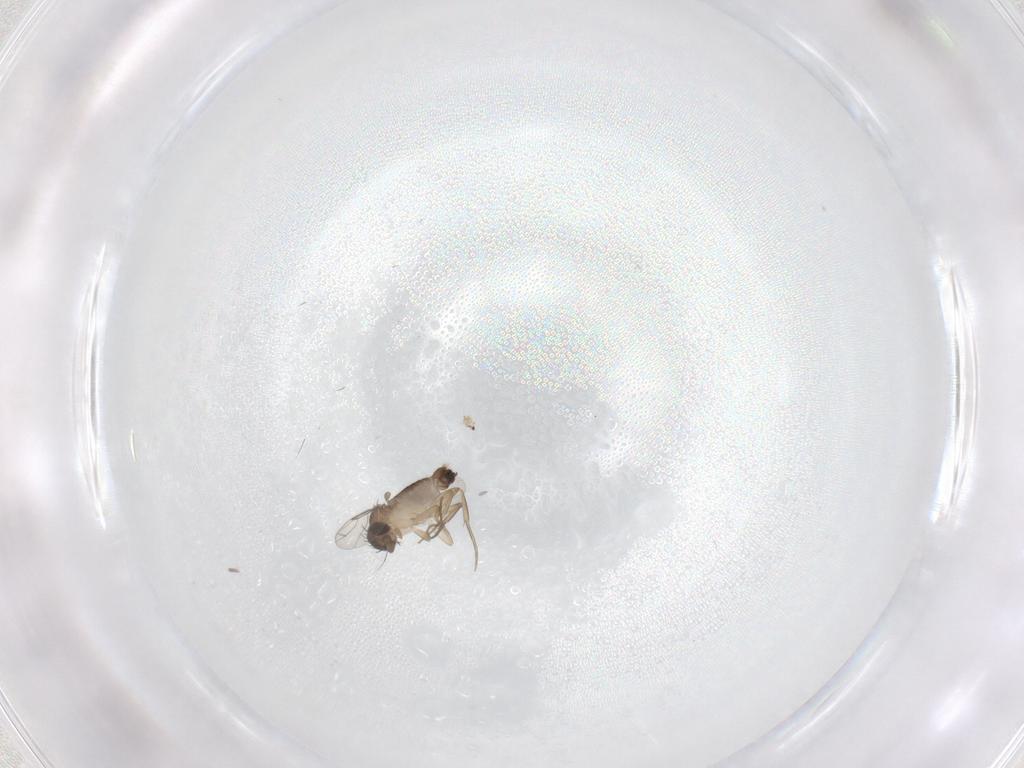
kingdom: Animalia
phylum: Arthropoda
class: Insecta
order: Diptera
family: Phoridae
